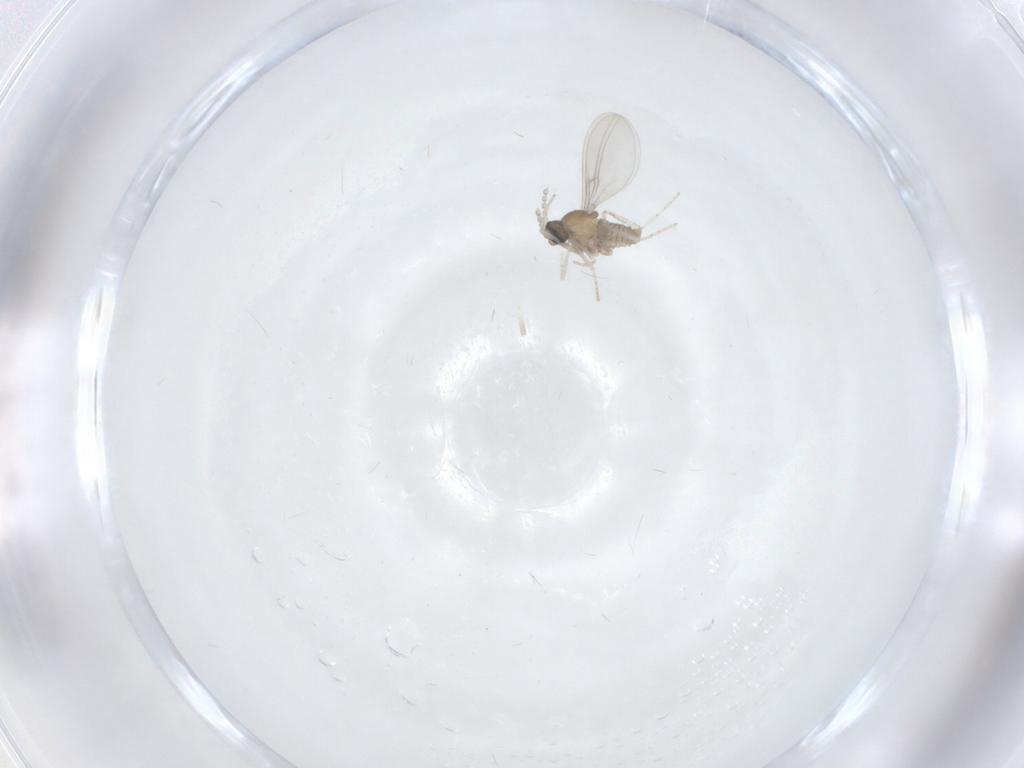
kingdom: Animalia
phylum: Arthropoda
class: Insecta
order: Diptera
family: Cecidomyiidae
